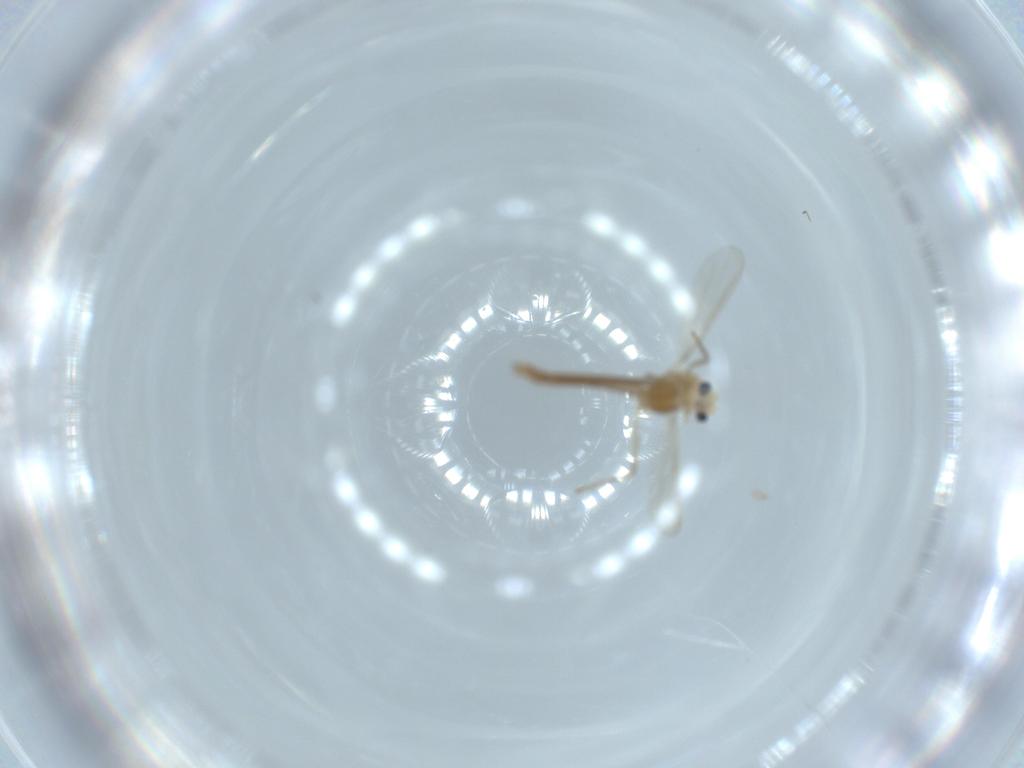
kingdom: Animalia
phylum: Arthropoda
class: Insecta
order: Diptera
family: Chironomidae
